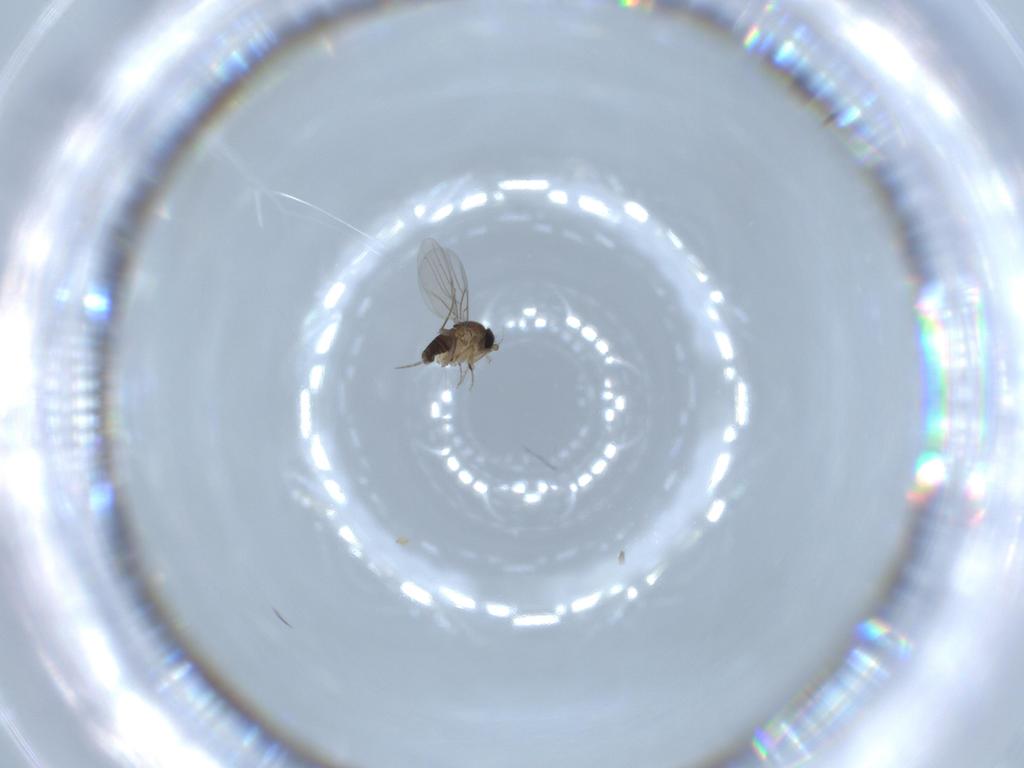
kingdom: Animalia
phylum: Arthropoda
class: Insecta
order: Diptera
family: Phoridae
